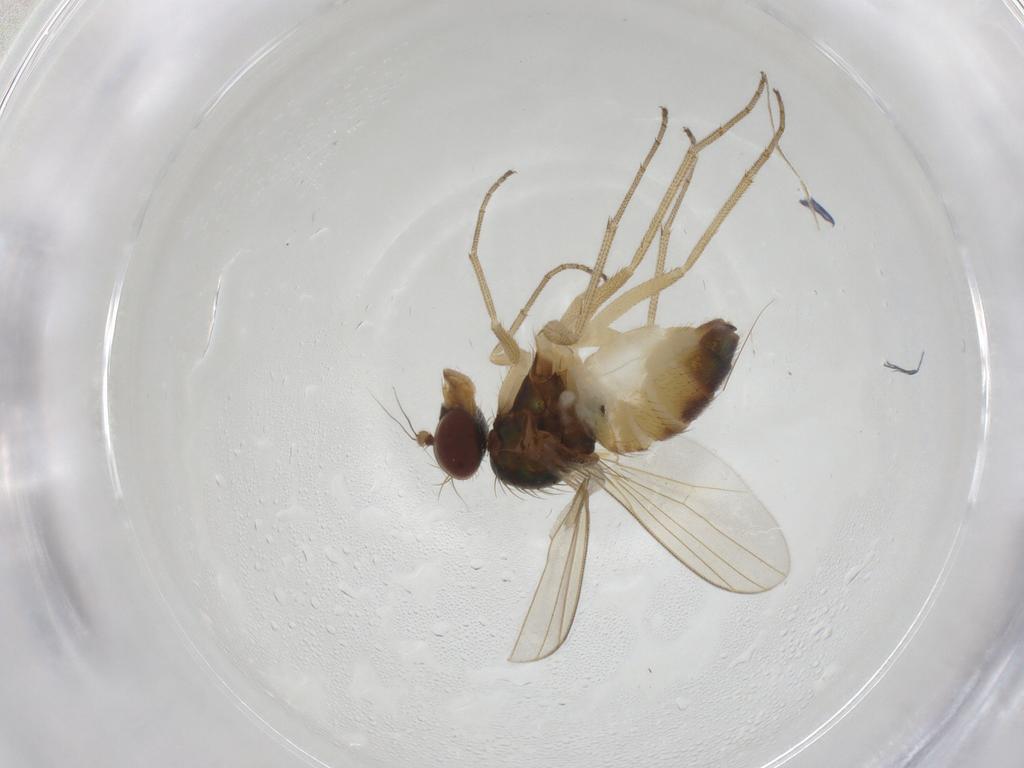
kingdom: Animalia
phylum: Arthropoda
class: Insecta
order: Diptera
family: Dolichopodidae
